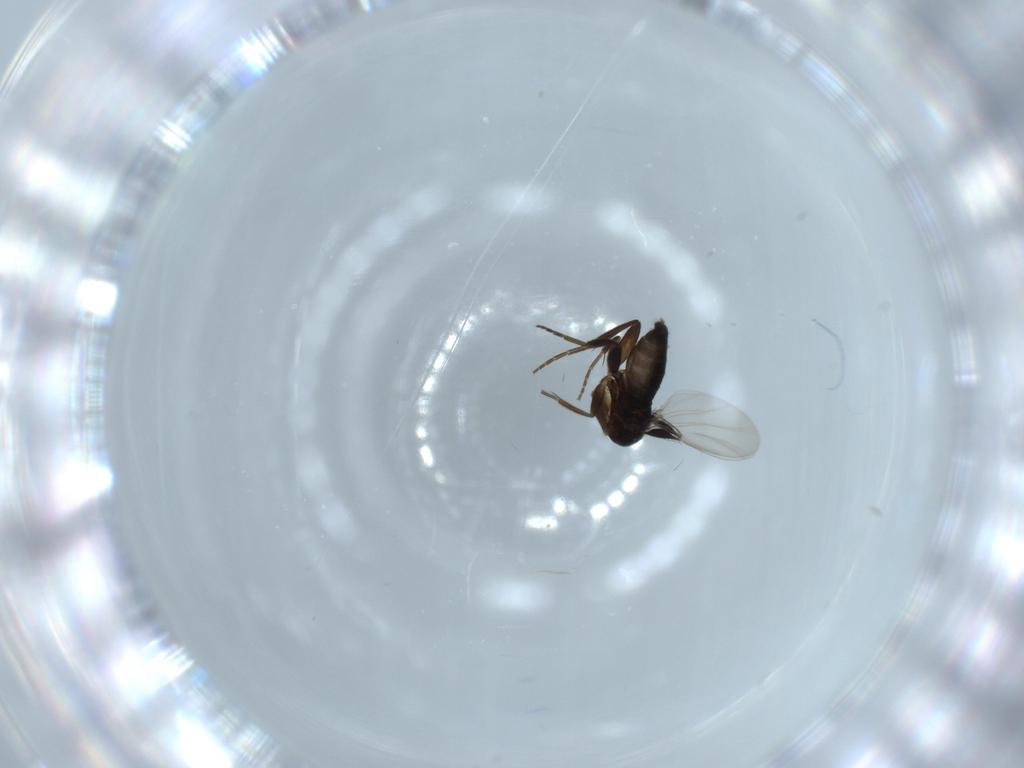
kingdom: Animalia
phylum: Arthropoda
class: Insecta
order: Diptera
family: Phoridae
